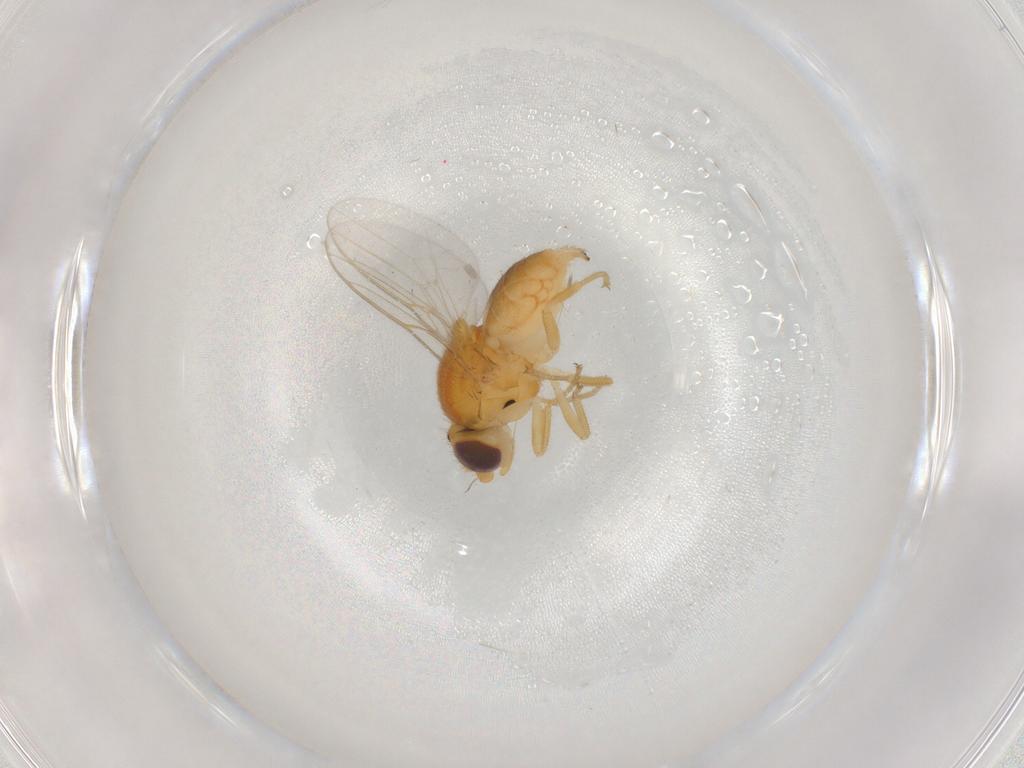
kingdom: Animalia
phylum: Arthropoda
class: Insecta
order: Diptera
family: Chloropidae
